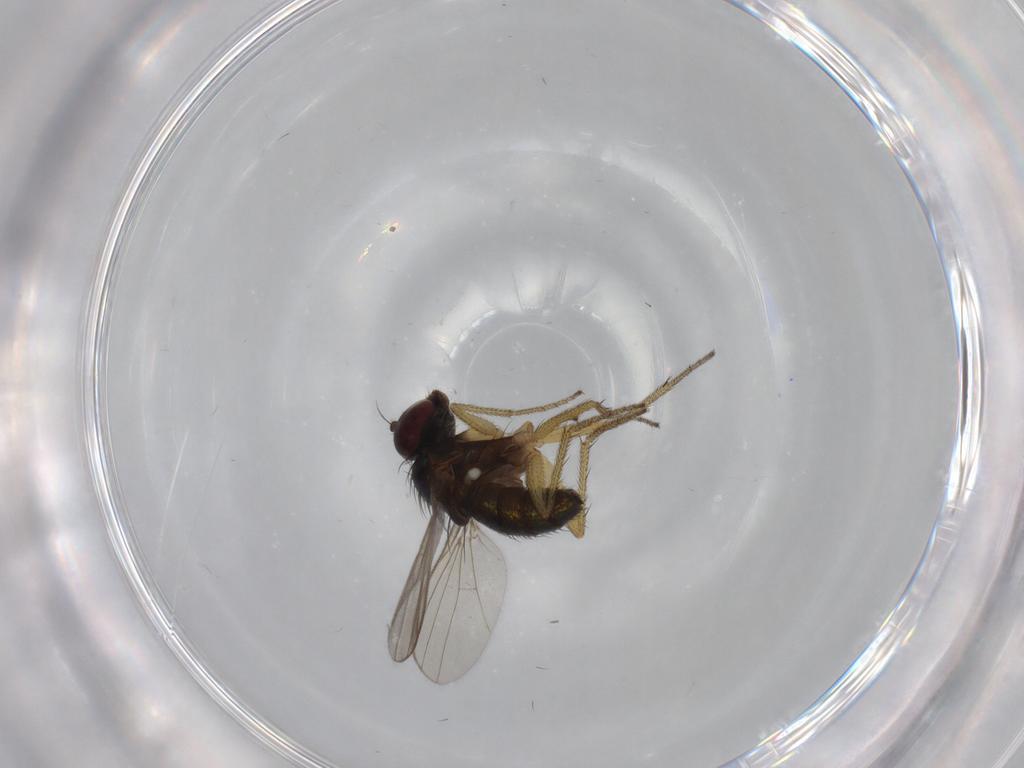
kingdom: Animalia
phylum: Arthropoda
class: Insecta
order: Diptera
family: Dolichopodidae
